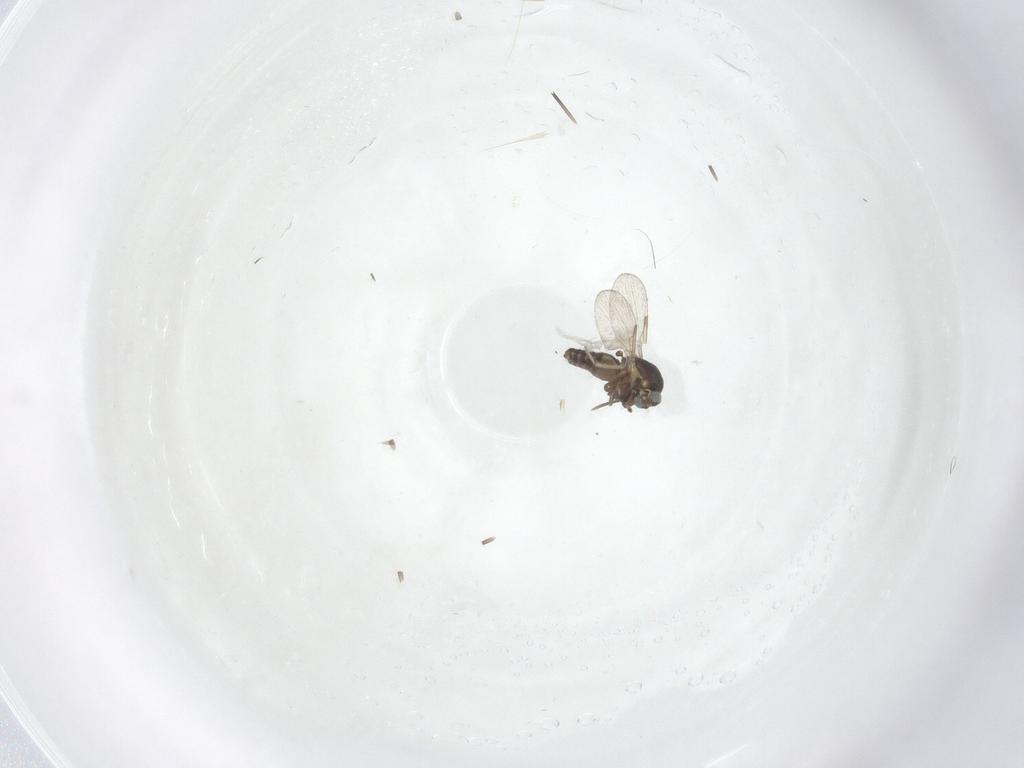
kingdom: Animalia
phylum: Arthropoda
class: Insecta
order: Diptera
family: Ceratopogonidae
